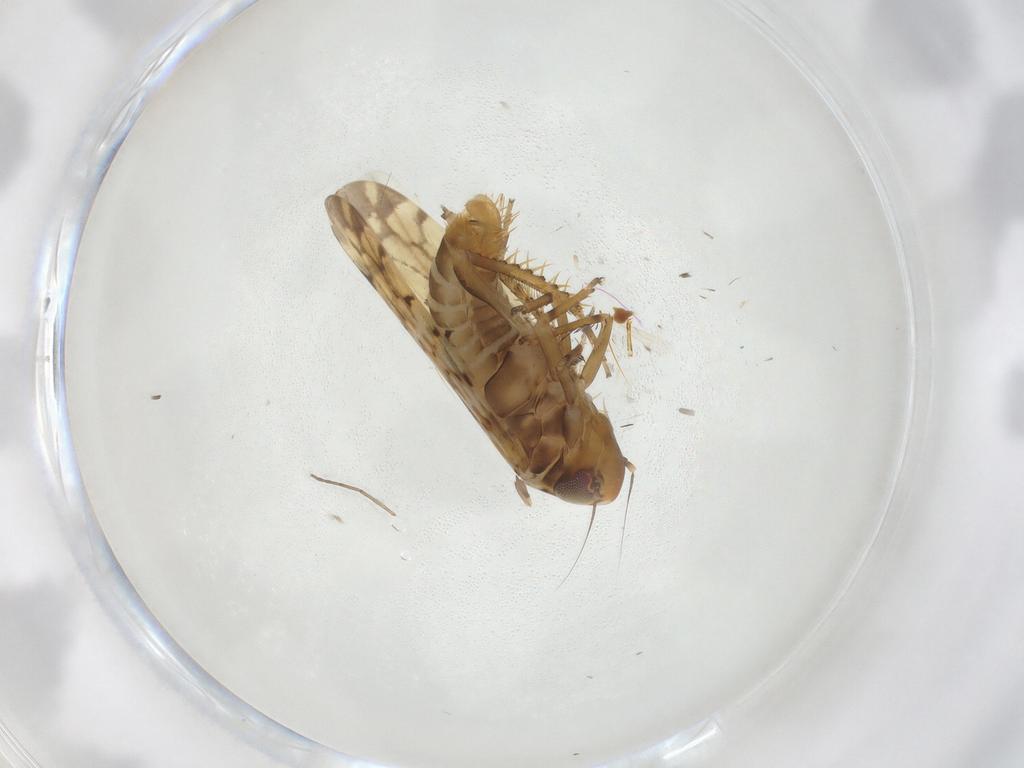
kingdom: Animalia
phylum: Arthropoda
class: Insecta
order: Hemiptera
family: Cicadellidae
